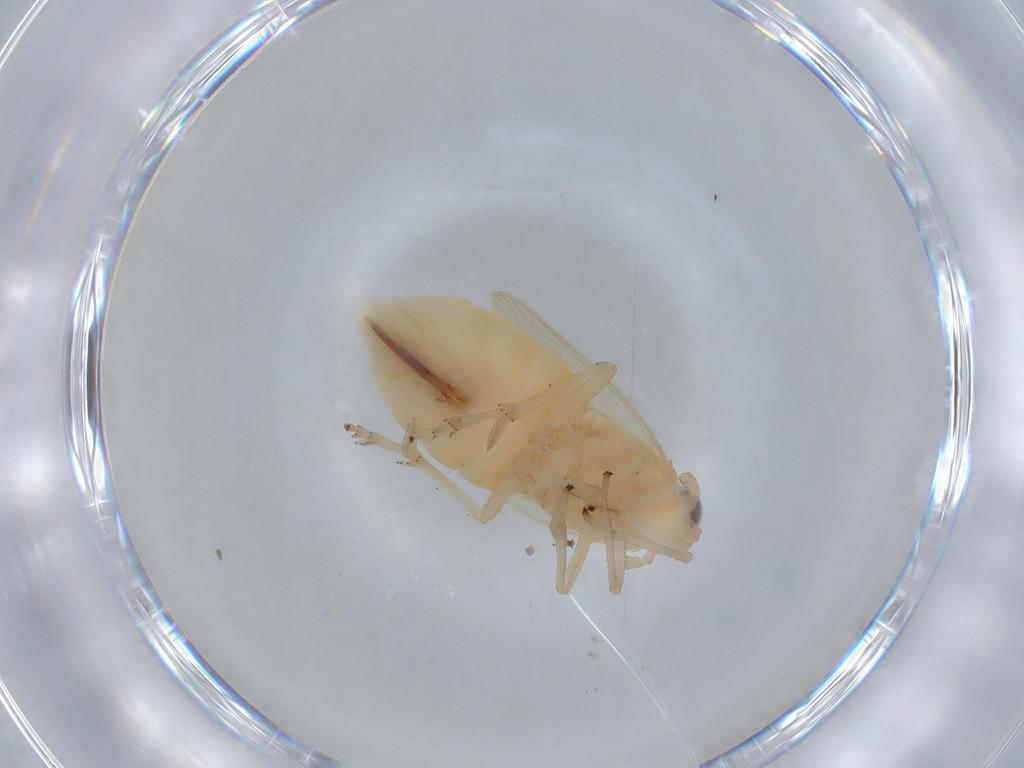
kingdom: Animalia
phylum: Arthropoda
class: Insecta
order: Hemiptera
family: Delphacidae
